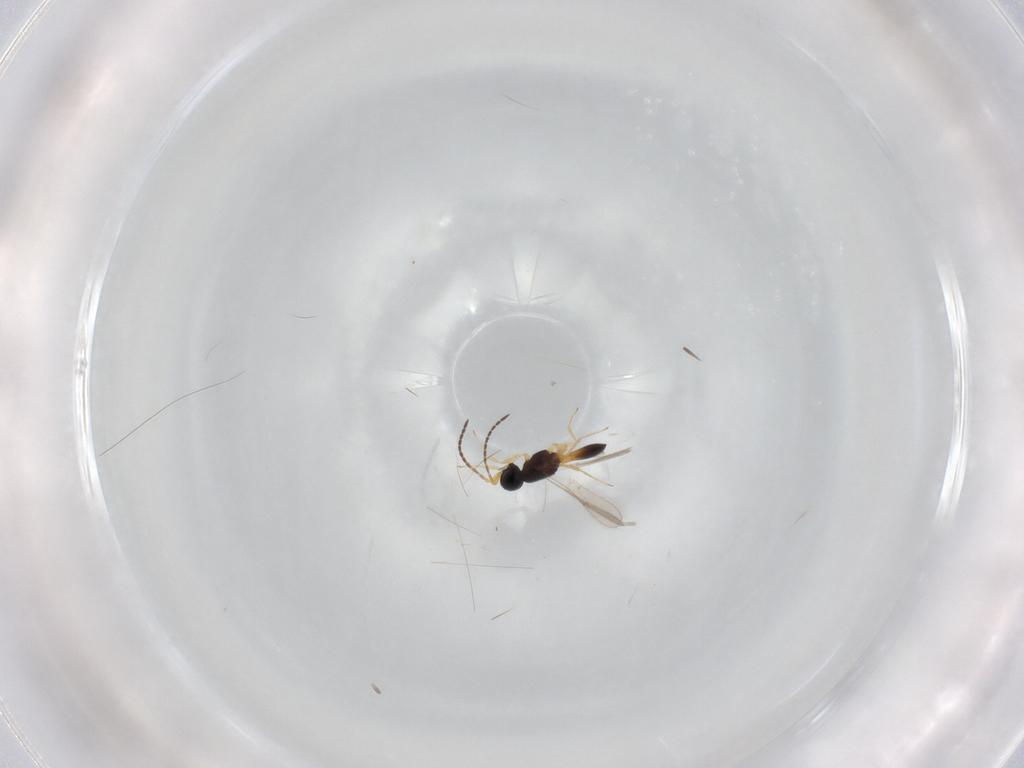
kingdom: Animalia
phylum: Arthropoda
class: Insecta
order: Hymenoptera
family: Scelionidae
